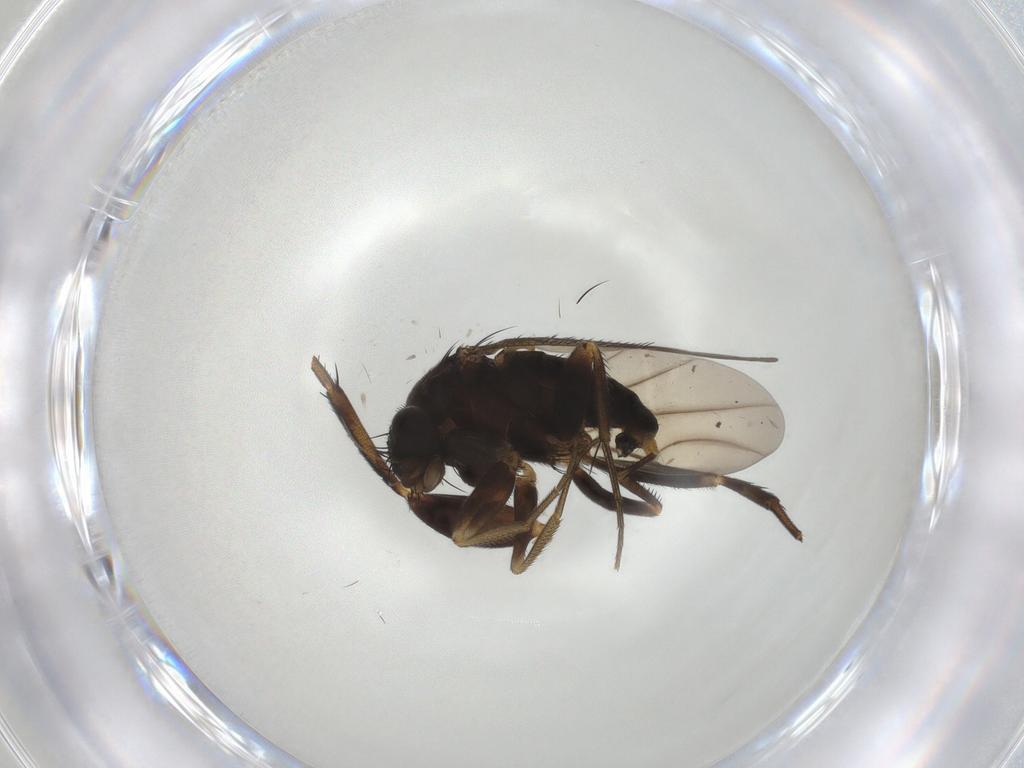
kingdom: Animalia
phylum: Arthropoda
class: Insecta
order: Diptera
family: Phoridae
